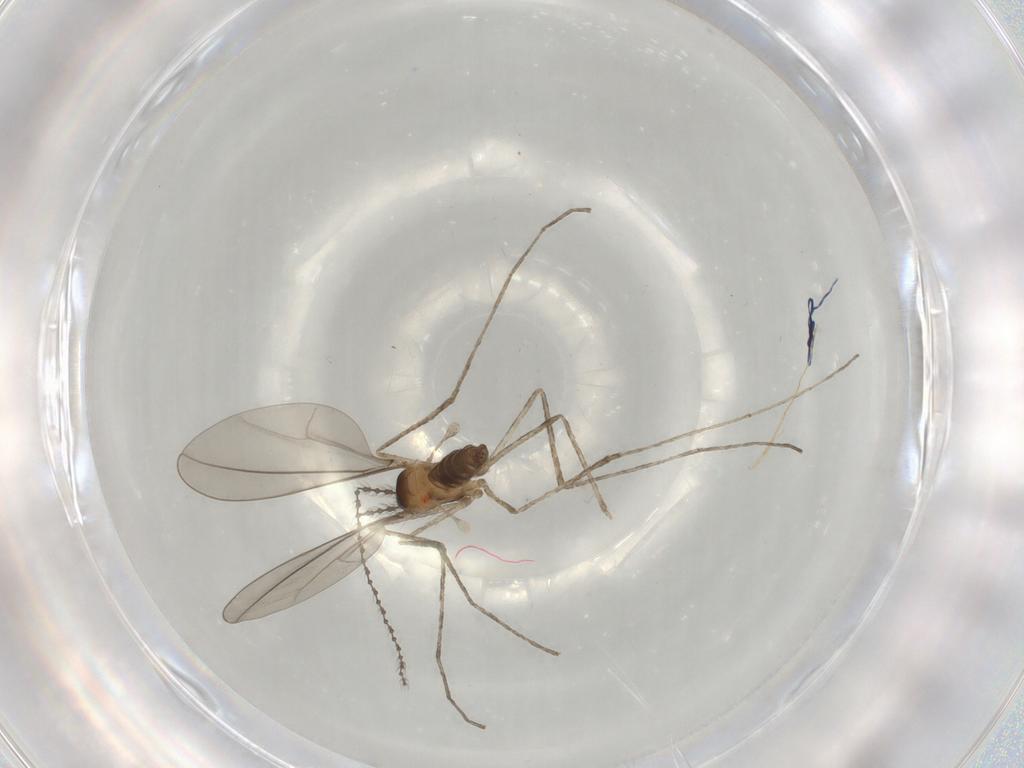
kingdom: Animalia
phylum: Arthropoda
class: Insecta
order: Diptera
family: Cecidomyiidae
